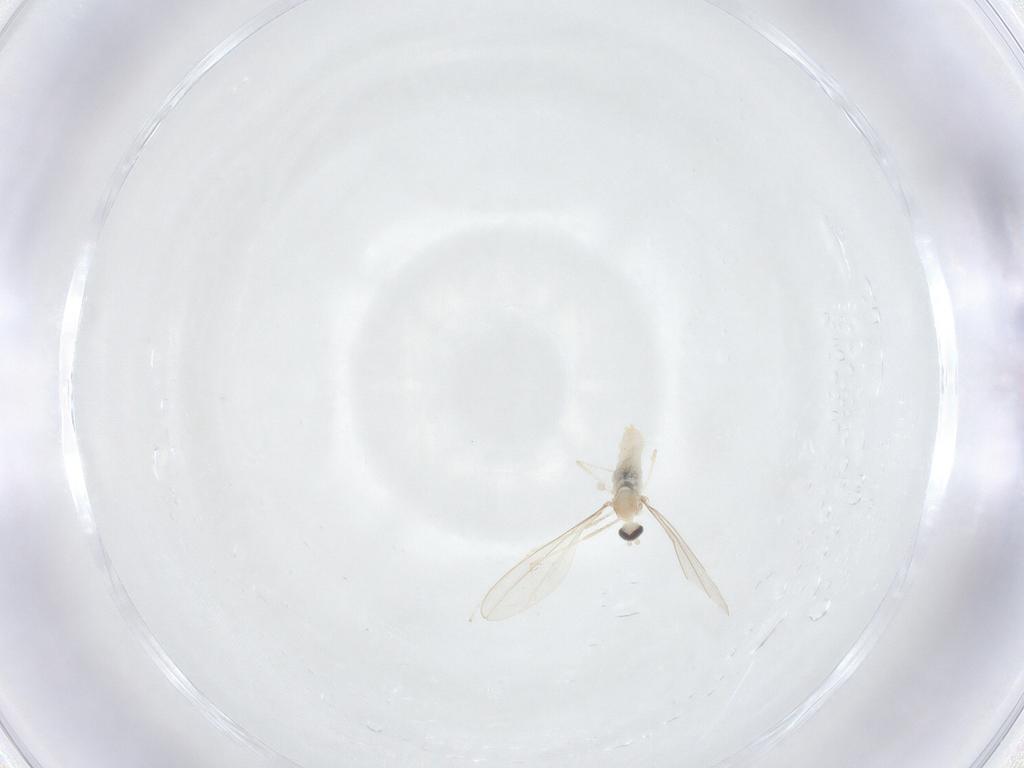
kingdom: Animalia
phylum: Arthropoda
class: Insecta
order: Diptera
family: Cecidomyiidae
